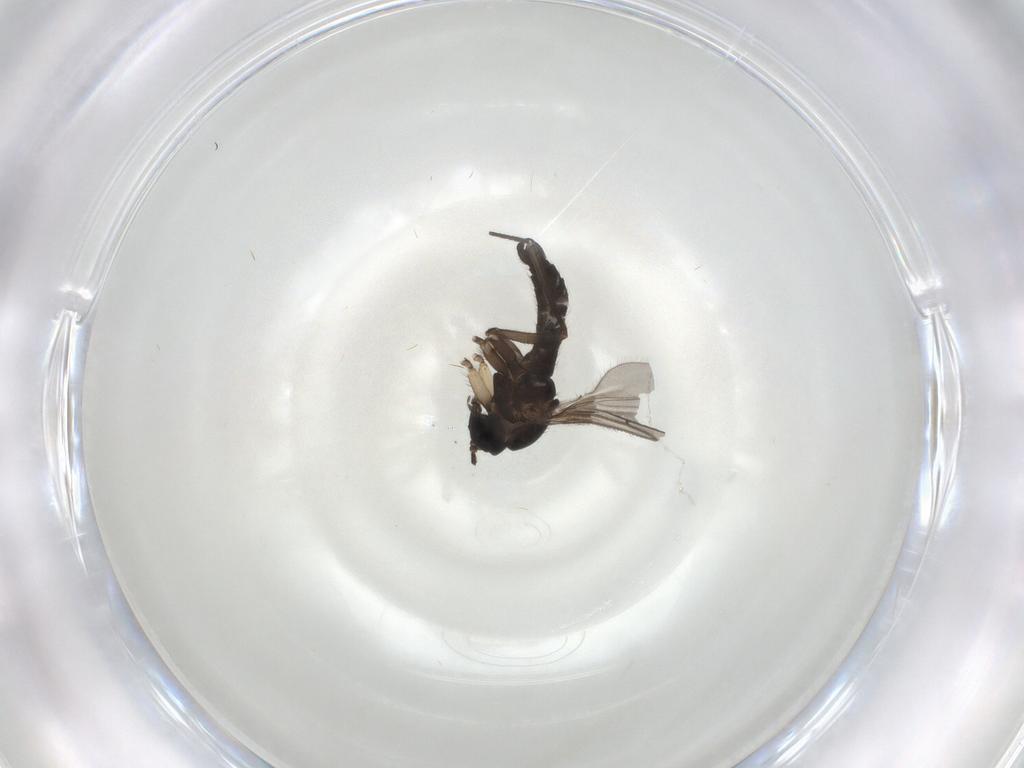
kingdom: Animalia
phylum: Arthropoda
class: Insecta
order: Diptera
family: Sciaridae
